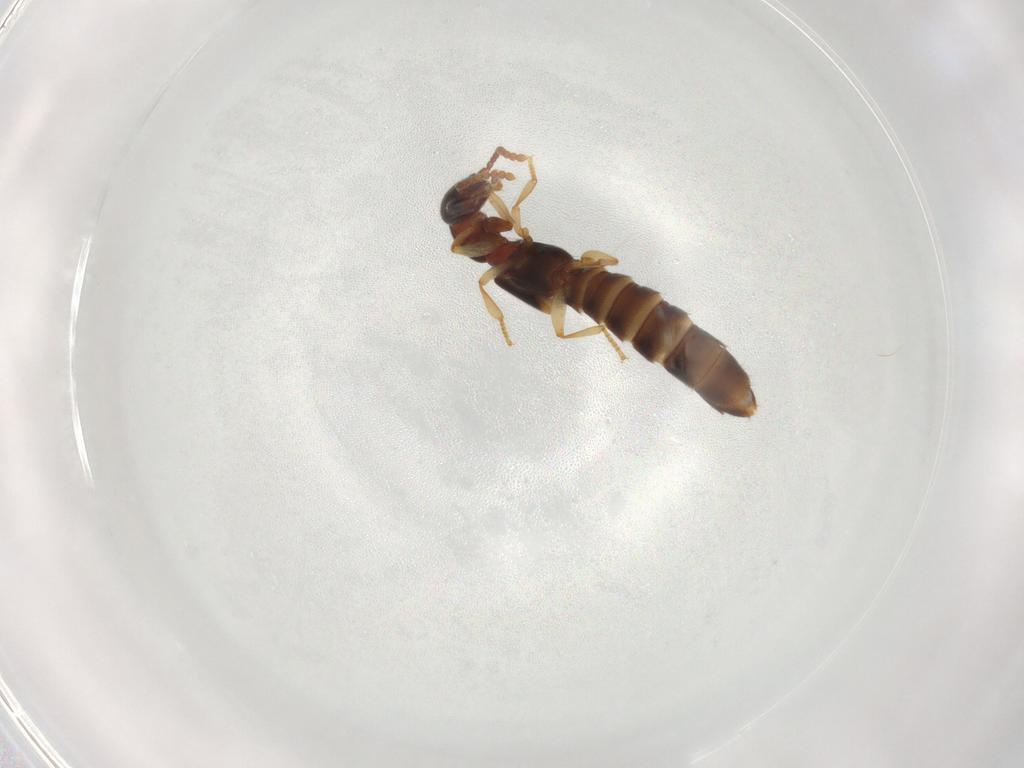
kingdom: Animalia
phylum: Arthropoda
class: Insecta
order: Coleoptera
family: Staphylinidae
